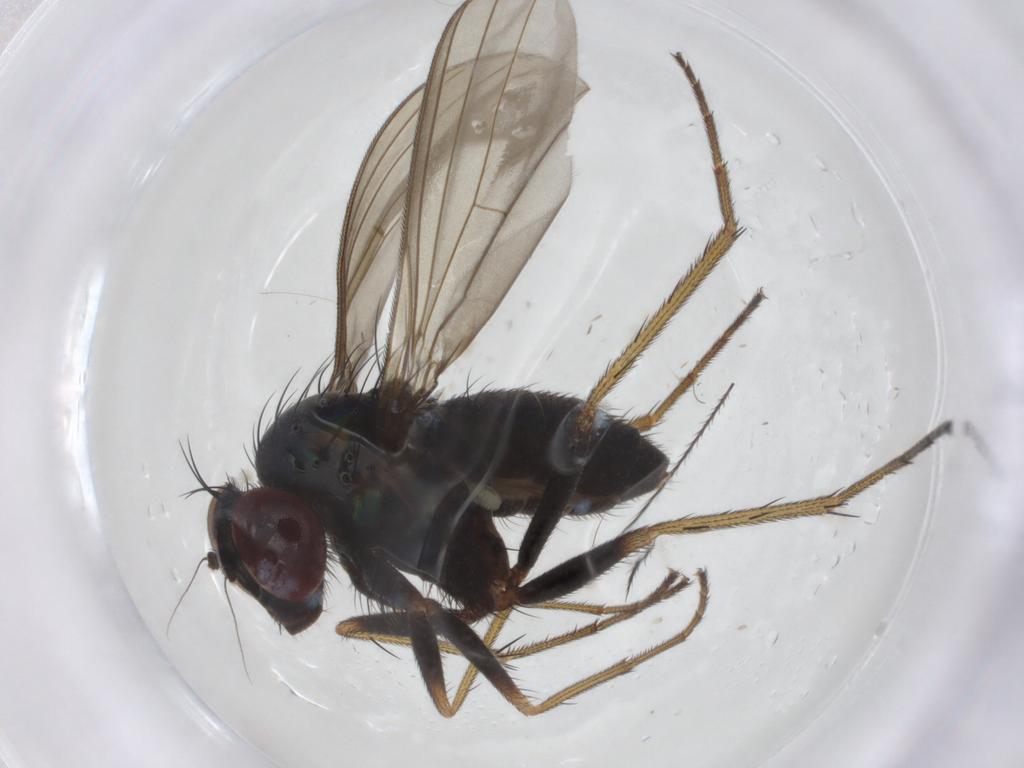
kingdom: Animalia
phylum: Arthropoda
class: Insecta
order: Diptera
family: Dolichopodidae
